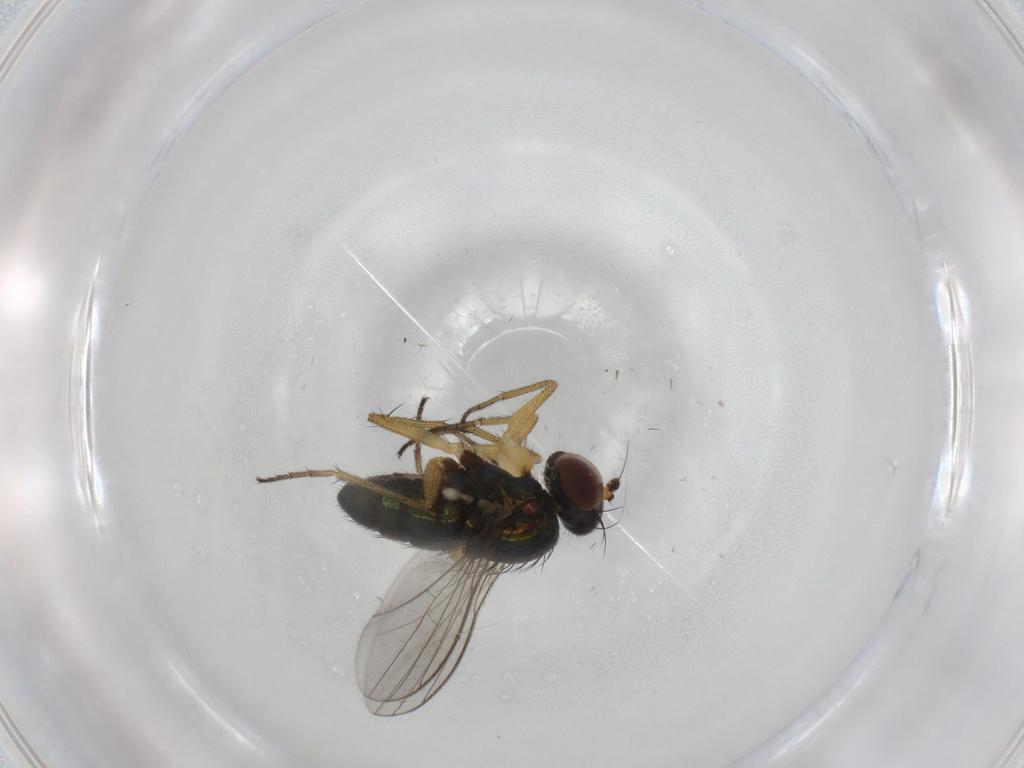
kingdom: Animalia
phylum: Arthropoda
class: Insecta
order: Diptera
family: Dolichopodidae
